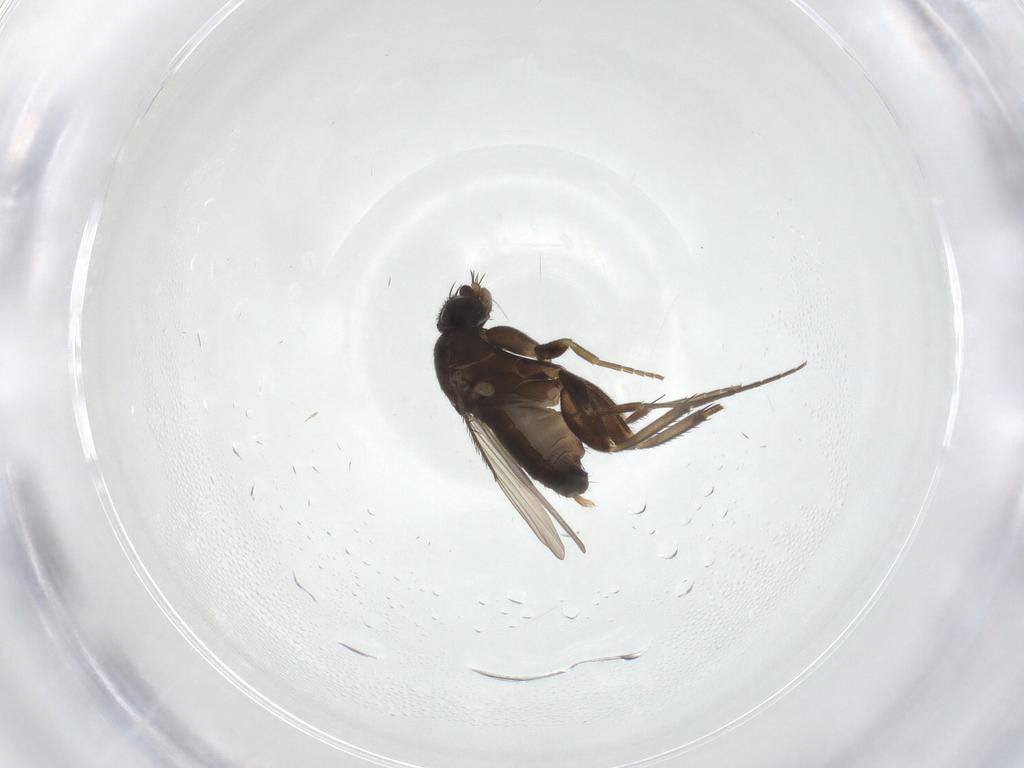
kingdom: Animalia
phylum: Arthropoda
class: Insecta
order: Diptera
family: Phoridae
